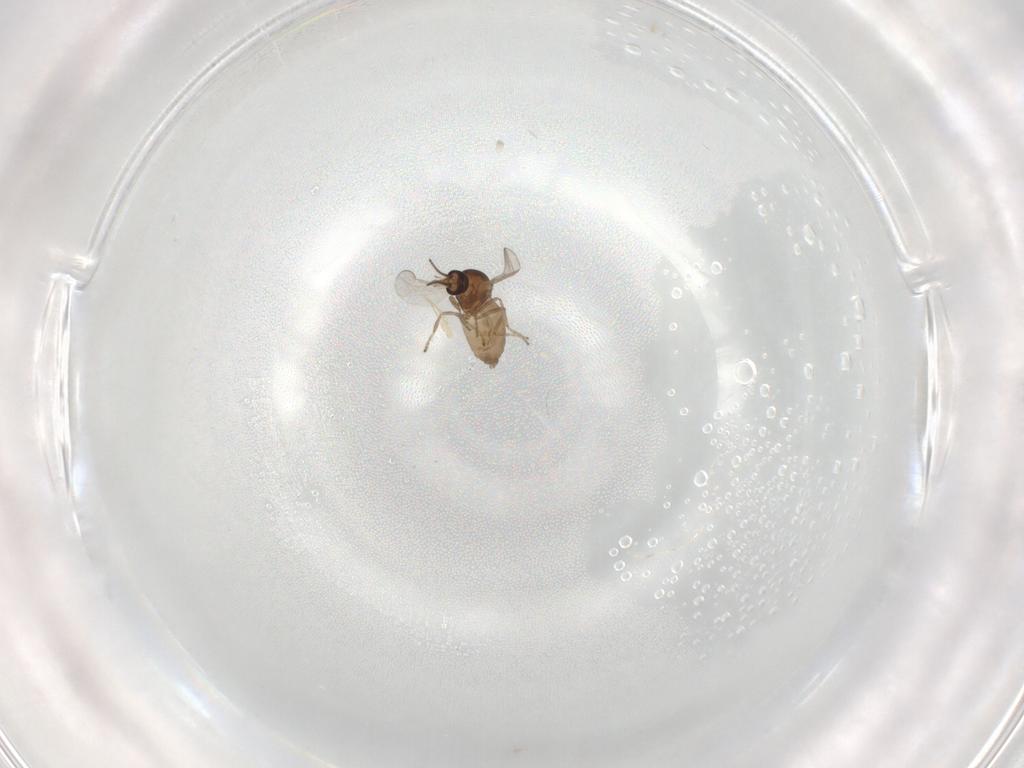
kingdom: Animalia
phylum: Arthropoda
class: Insecta
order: Diptera
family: Ceratopogonidae
